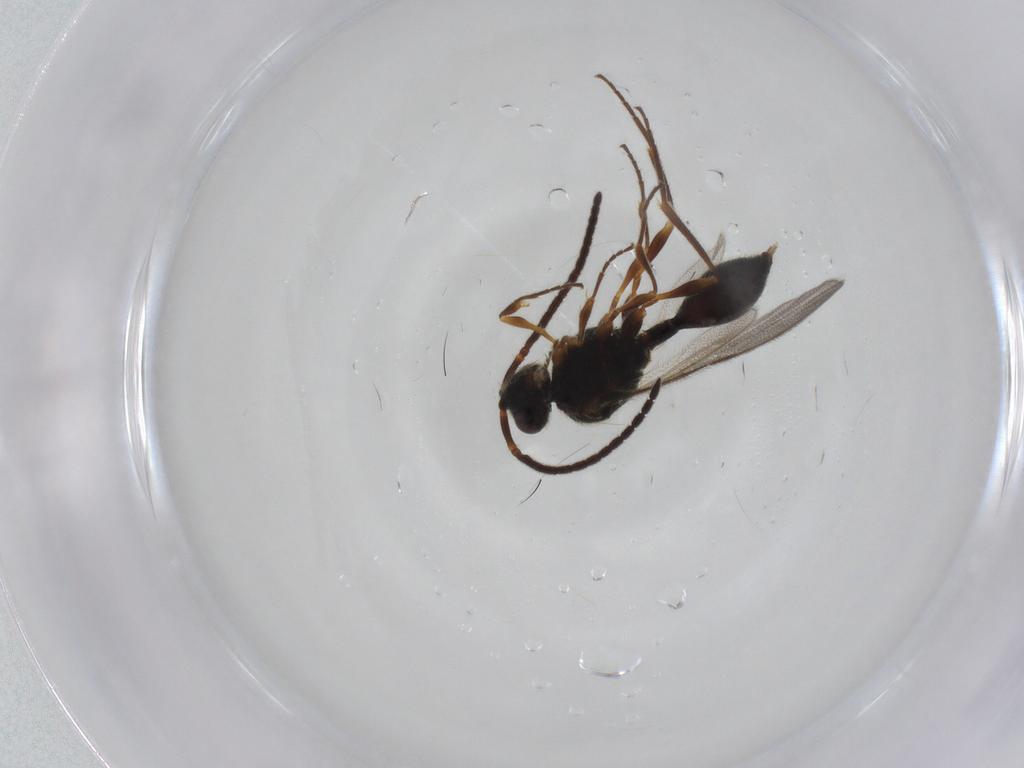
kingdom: Animalia
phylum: Arthropoda
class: Insecta
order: Hymenoptera
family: Diapriidae
